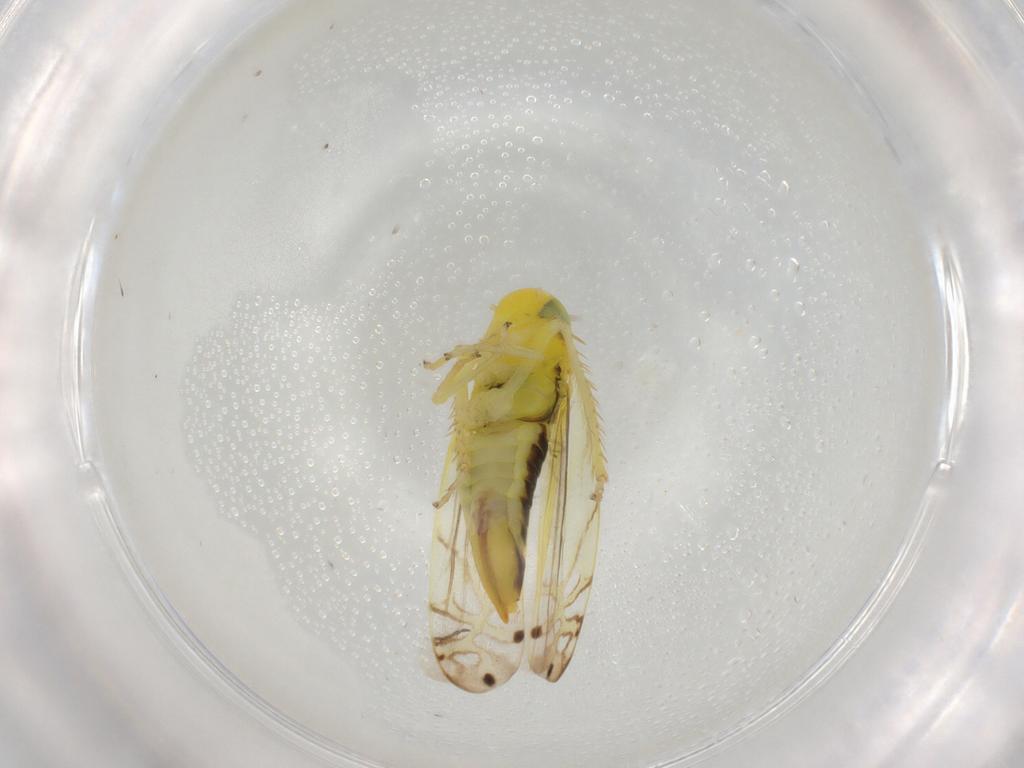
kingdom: Animalia
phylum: Arthropoda
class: Insecta
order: Hemiptera
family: Cicadellidae
